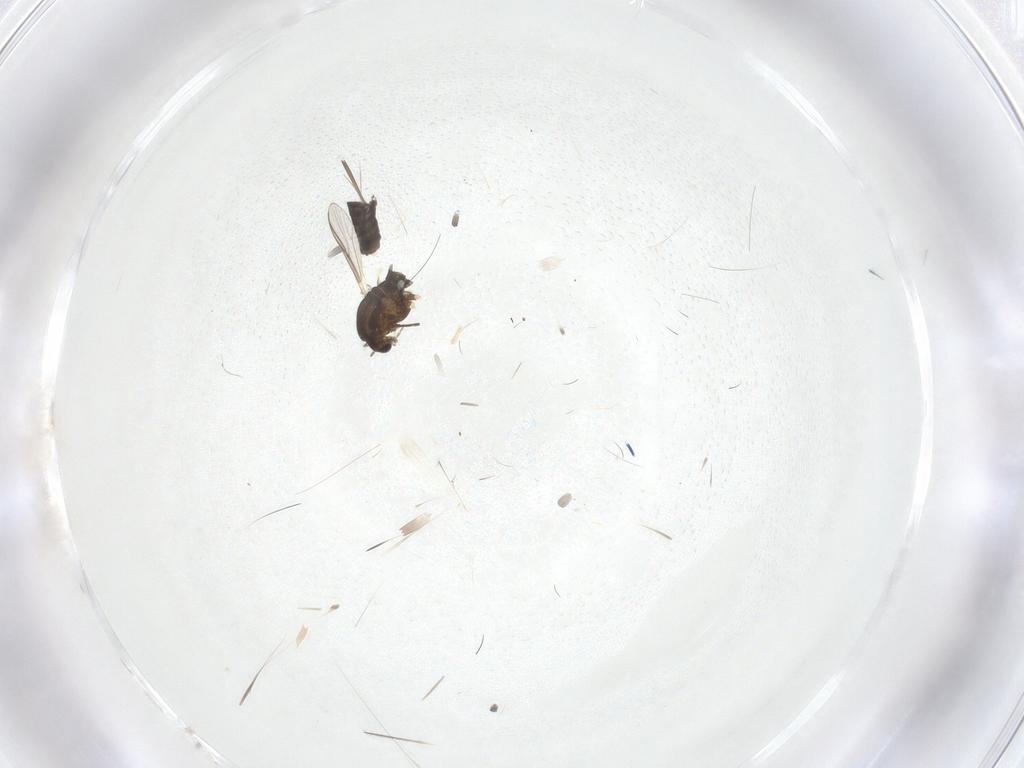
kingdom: Animalia
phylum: Arthropoda
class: Insecta
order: Diptera
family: Chironomidae
